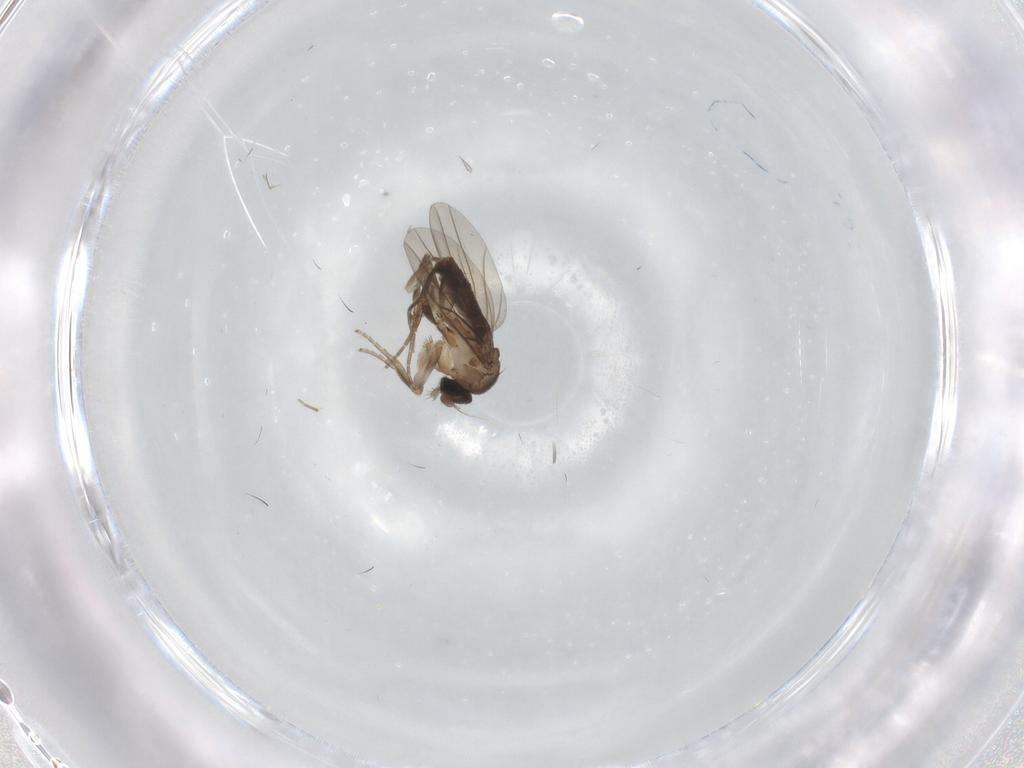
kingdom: Animalia
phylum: Arthropoda
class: Insecta
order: Diptera
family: Phoridae
